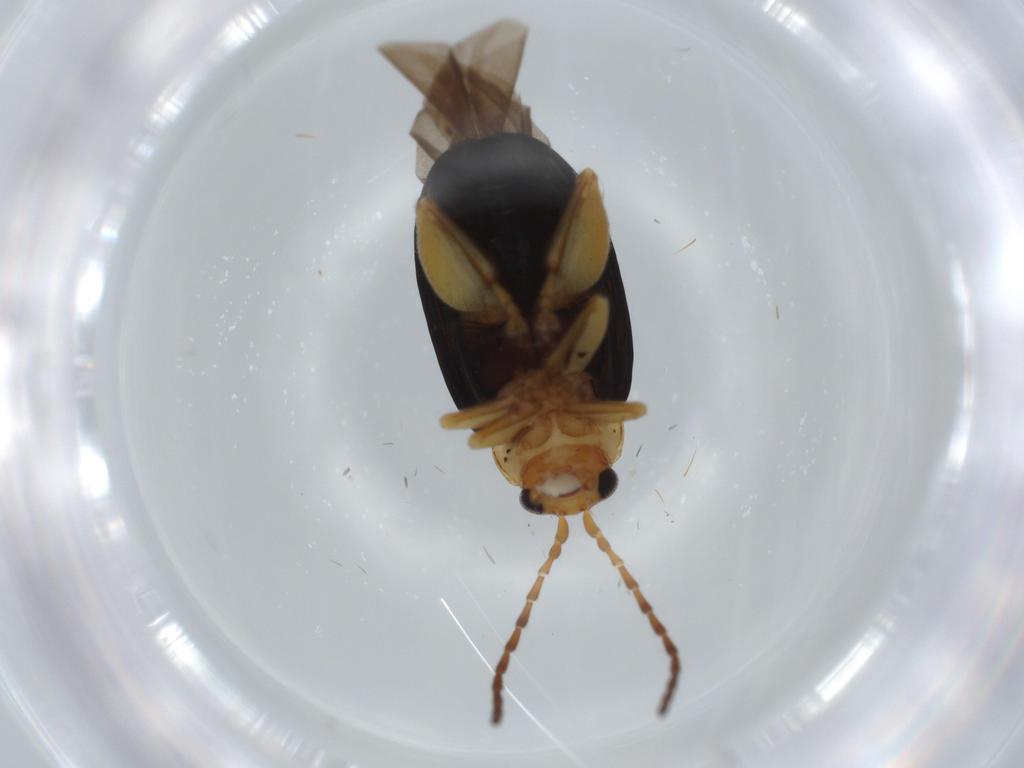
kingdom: Animalia
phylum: Arthropoda
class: Insecta
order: Coleoptera
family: Chrysomelidae
